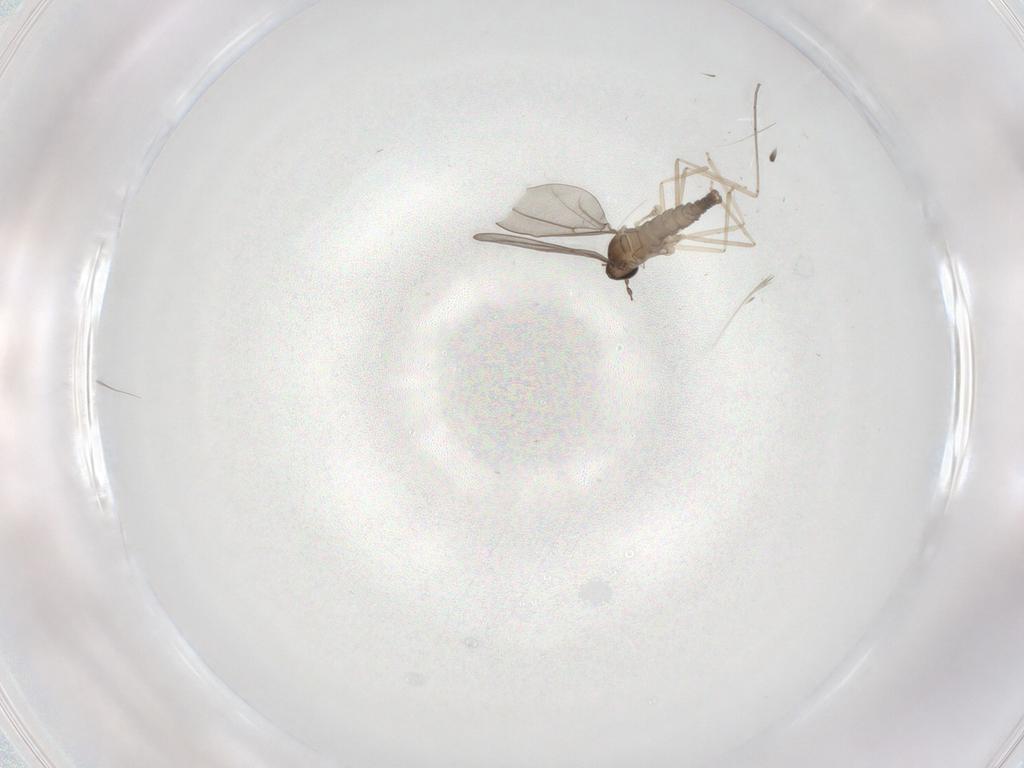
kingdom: Animalia
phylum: Arthropoda
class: Insecta
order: Diptera
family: Cecidomyiidae
